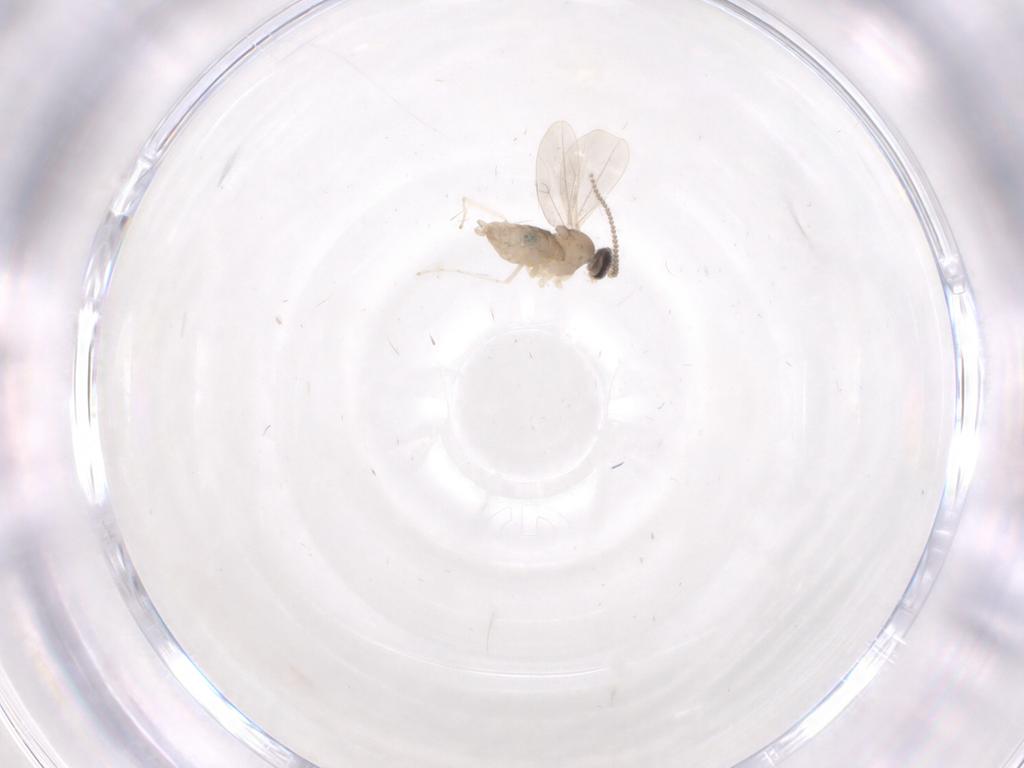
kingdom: Animalia
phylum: Arthropoda
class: Insecta
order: Diptera
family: Cecidomyiidae
